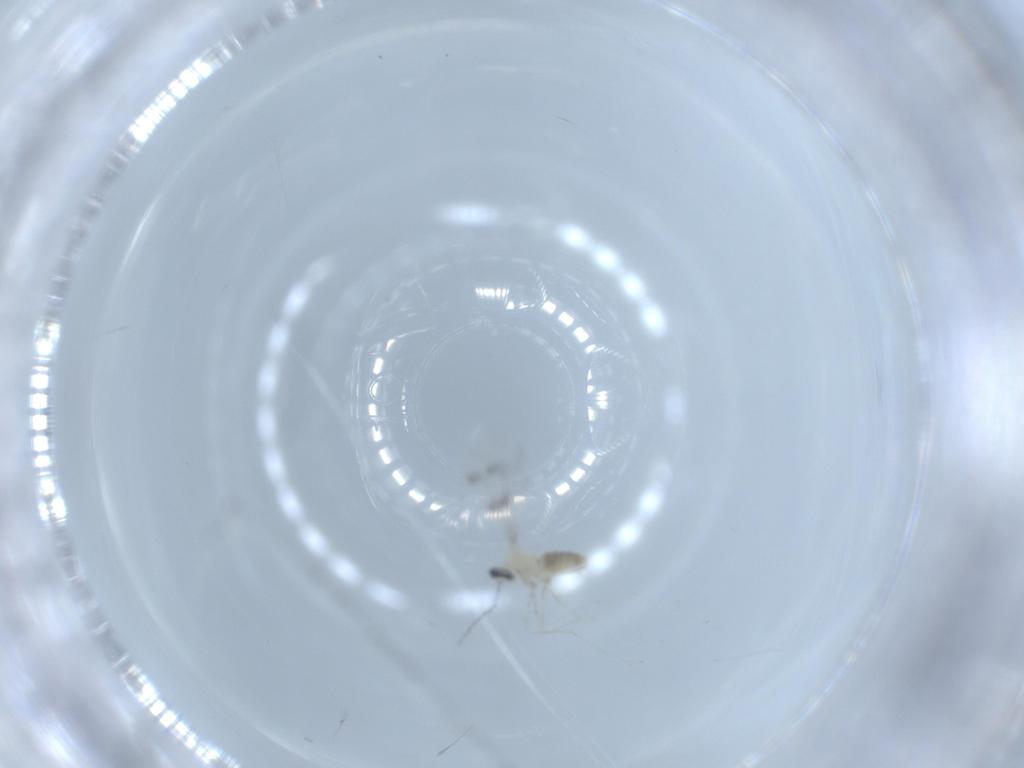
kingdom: Animalia
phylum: Arthropoda
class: Insecta
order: Diptera
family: Cecidomyiidae
